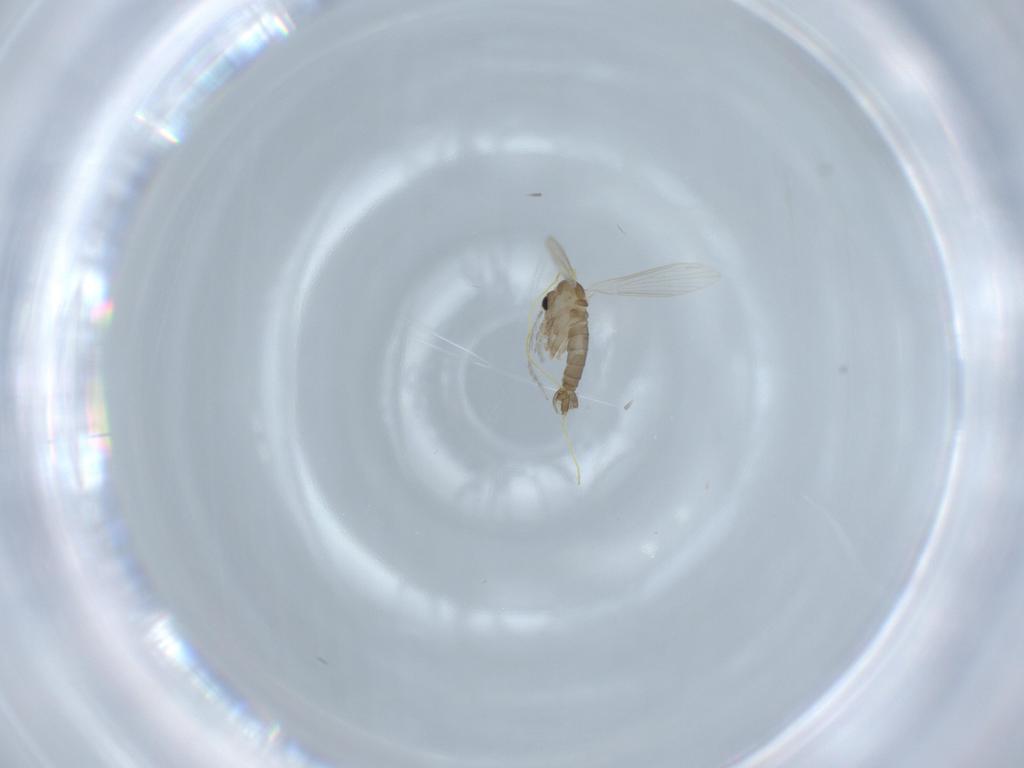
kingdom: Animalia
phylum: Arthropoda
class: Insecta
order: Diptera
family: Psychodidae
